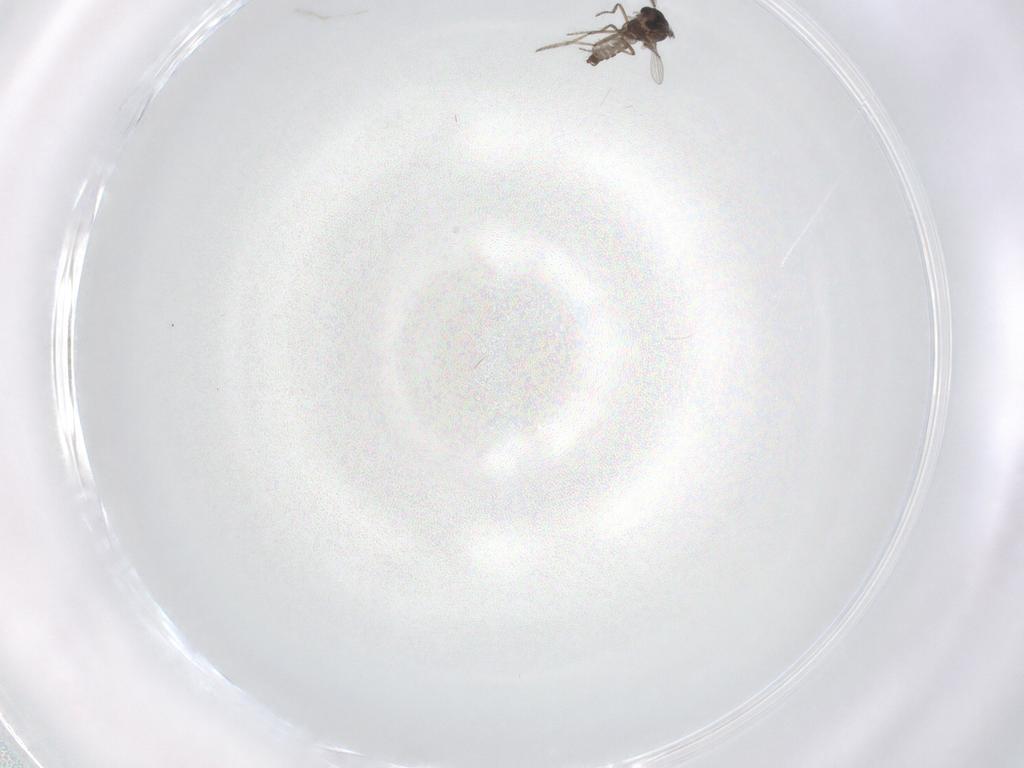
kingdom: Animalia
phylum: Arthropoda
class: Insecta
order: Diptera
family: Ceratopogonidae
